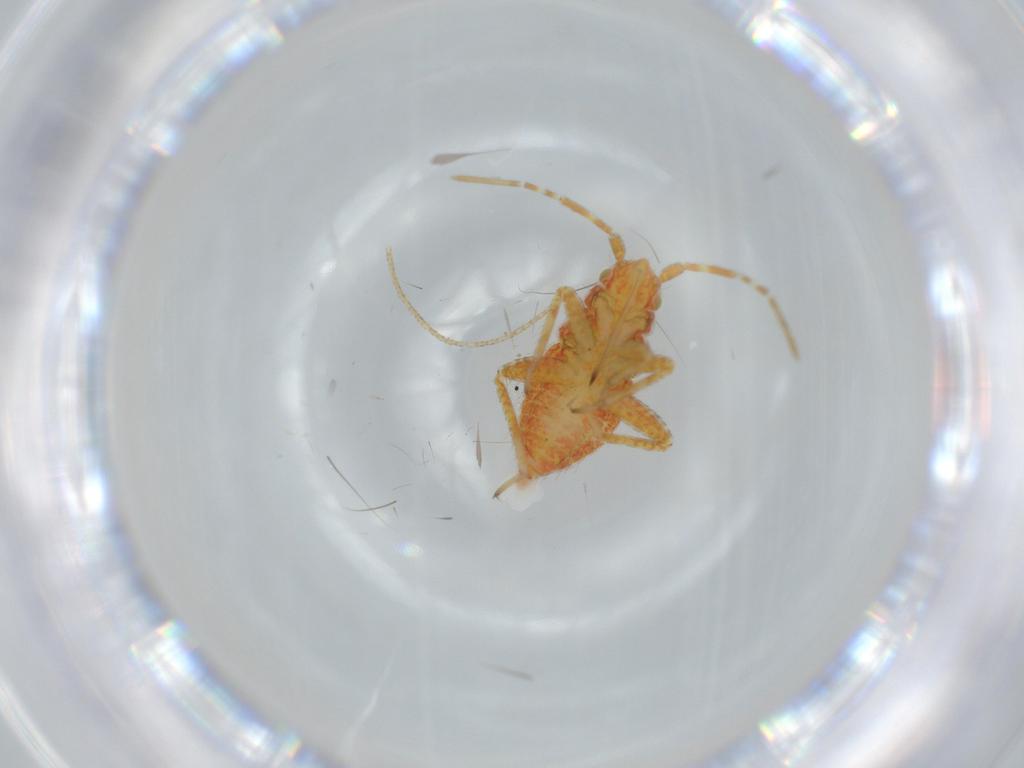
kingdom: Animalia
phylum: Arthropoda
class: Insecta
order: Hemiptera
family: Miridae
